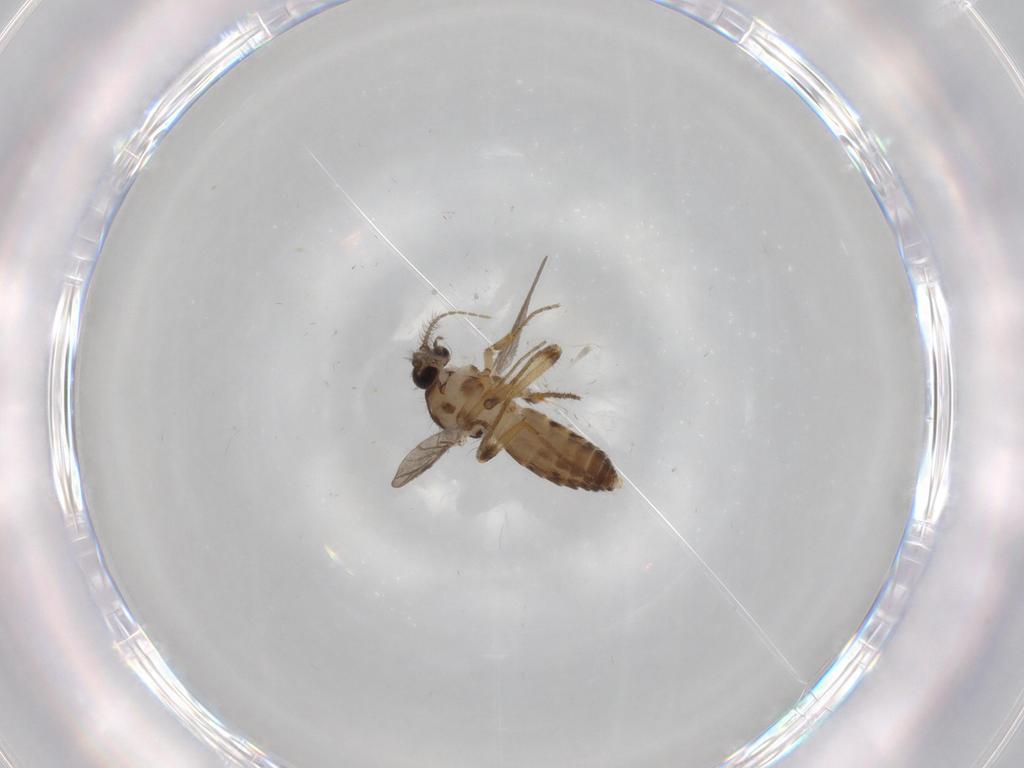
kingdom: Animalia
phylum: Arthropoda
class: Insecta
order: Diptera
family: Ceratopogonidae
